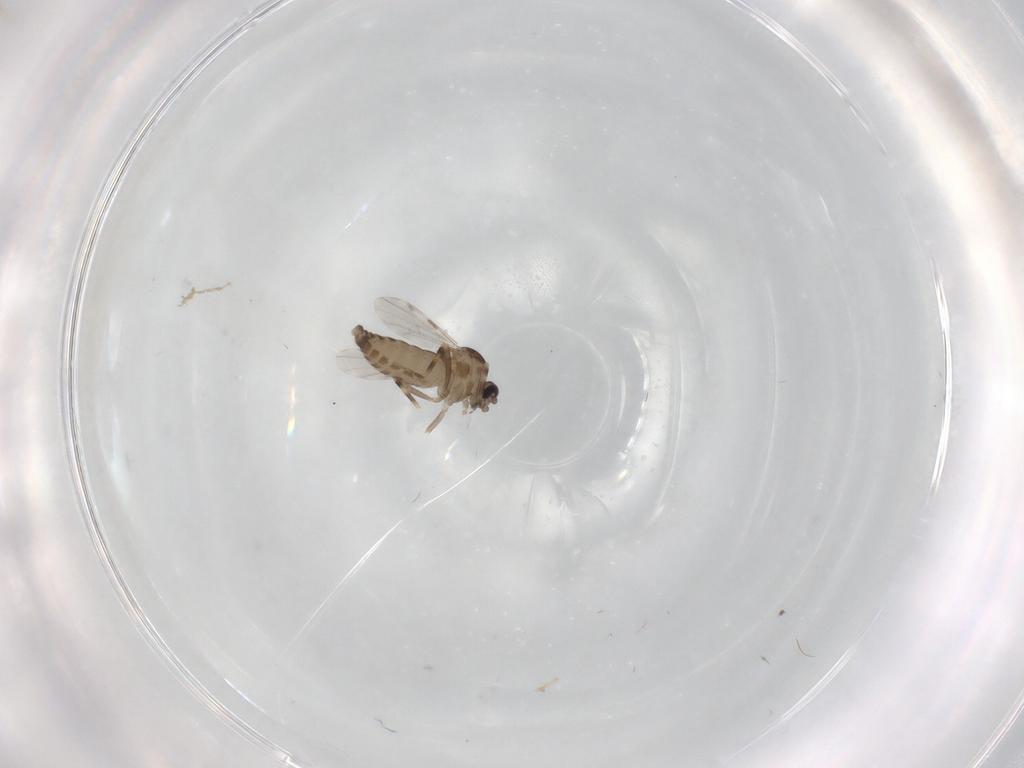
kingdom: Animalia
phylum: Arthropoda
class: Insecta
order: Diptera
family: Ceratopogonidae
